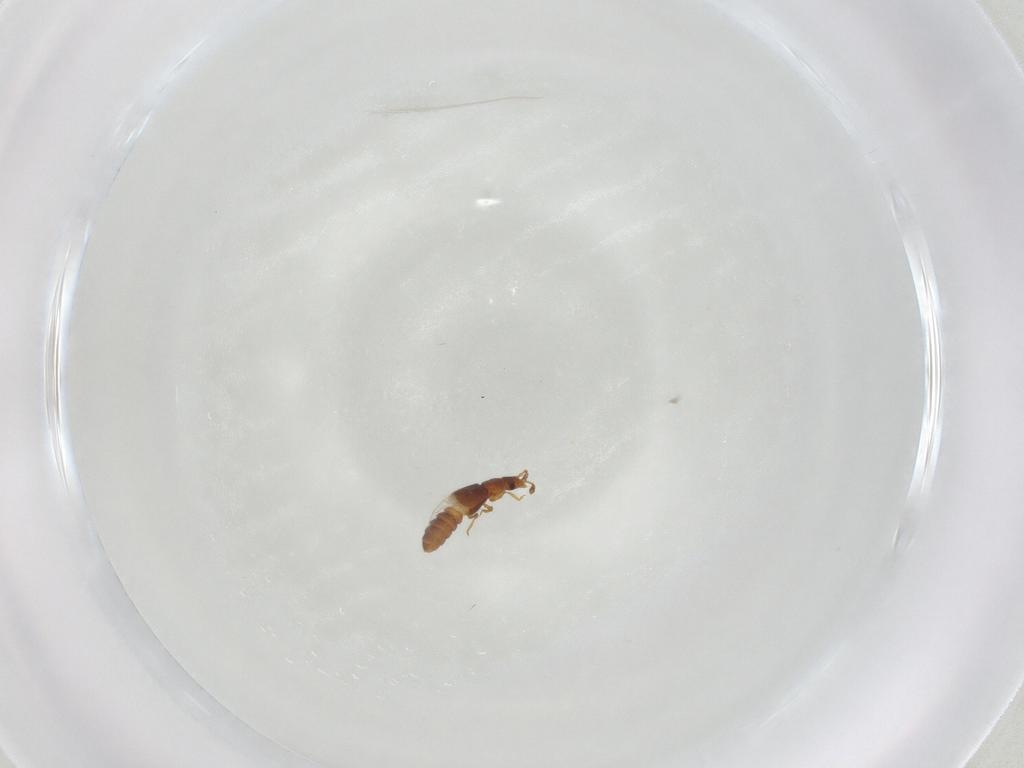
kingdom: Animalia
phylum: Arthropoda
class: Insecta
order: Coleoptera
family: Staphylinidae
